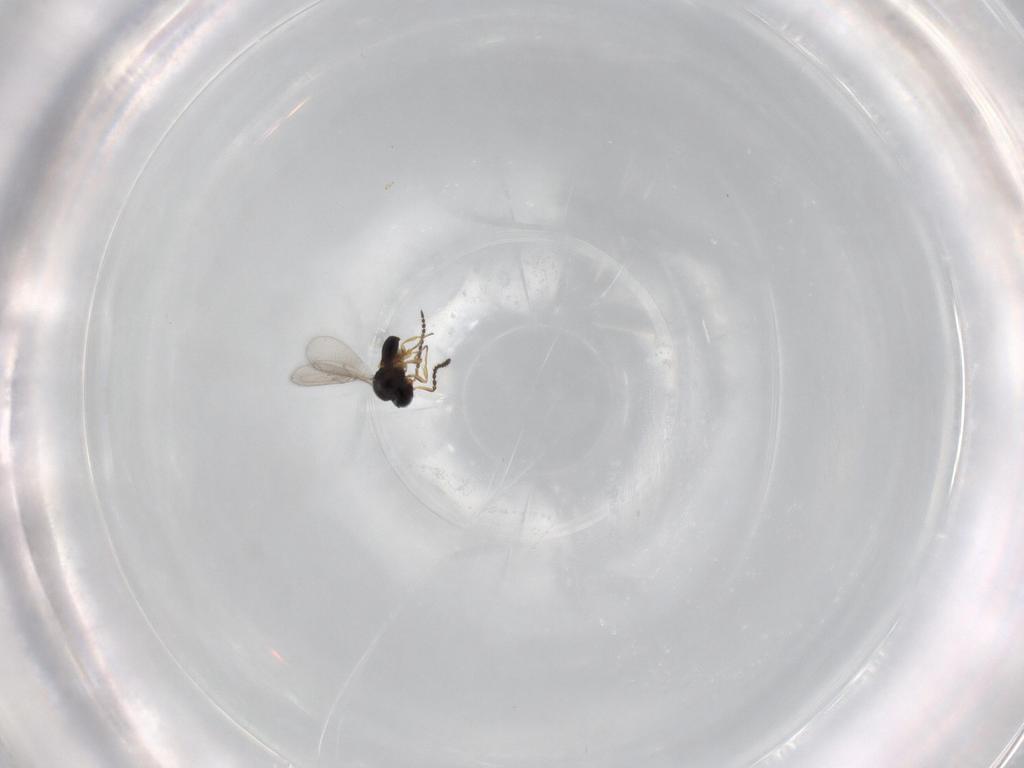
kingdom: Animalia
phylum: Arthropoda
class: Insecta
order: Hymenoptera
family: Scelionidae
